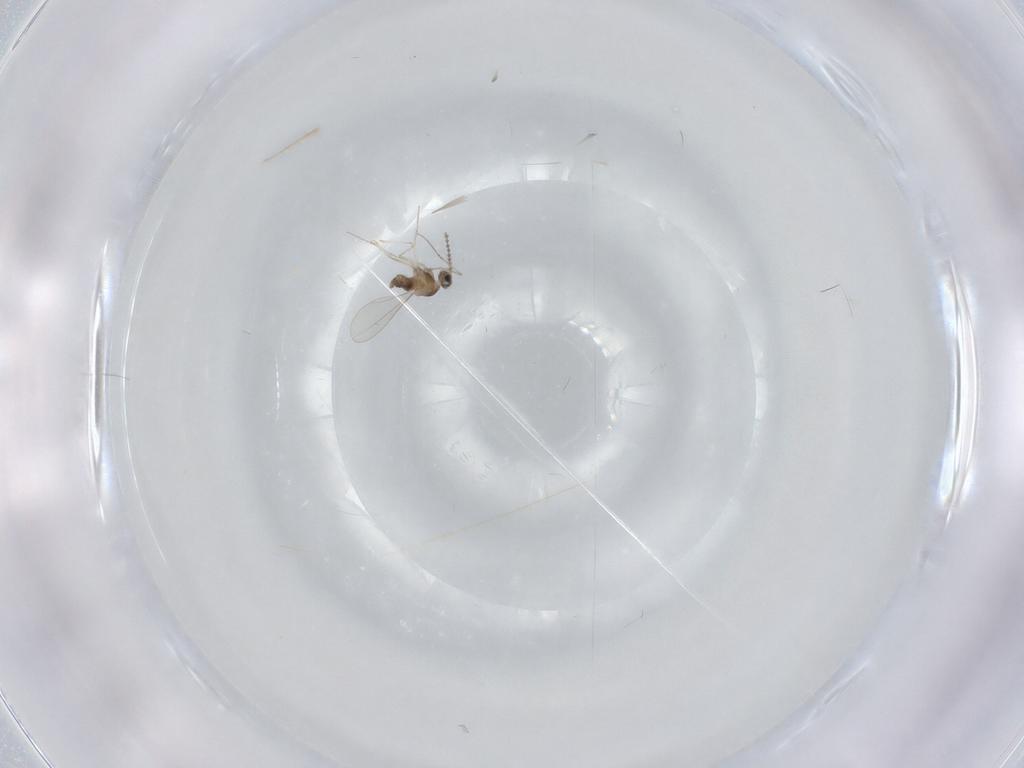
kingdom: Animalia
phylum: Arthropoda
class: Insecta
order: Diptera
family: Cecidomyiidae
